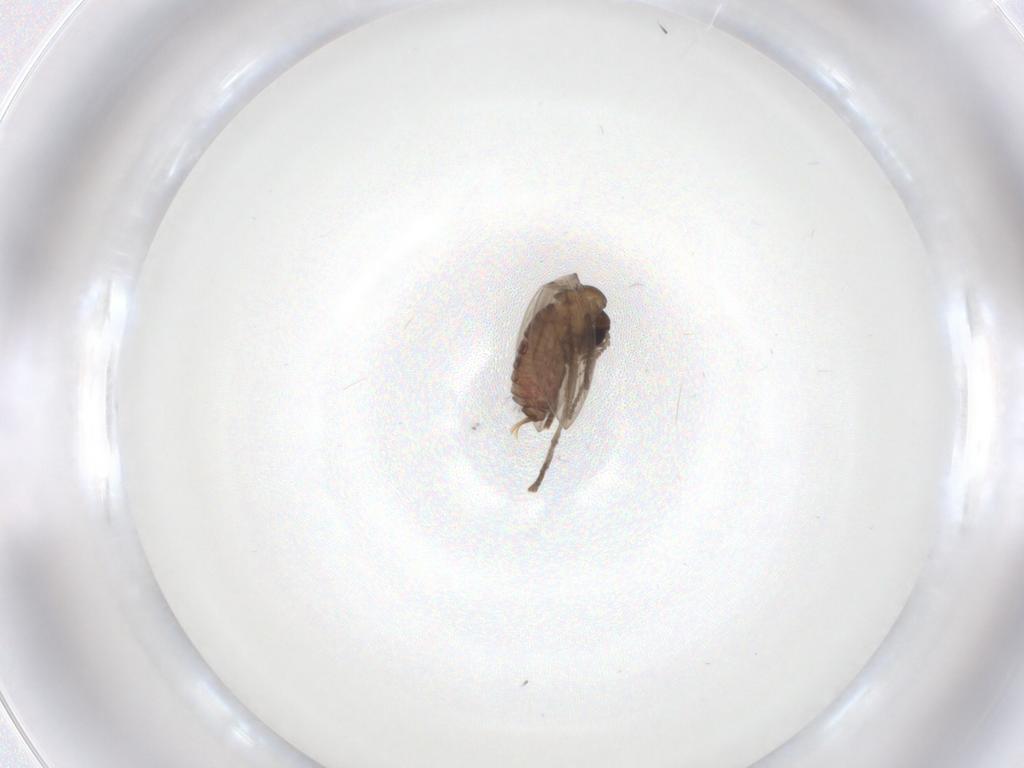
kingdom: Animalia
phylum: Arthropoda
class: Insecta
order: Diptera
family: Psychodidae
